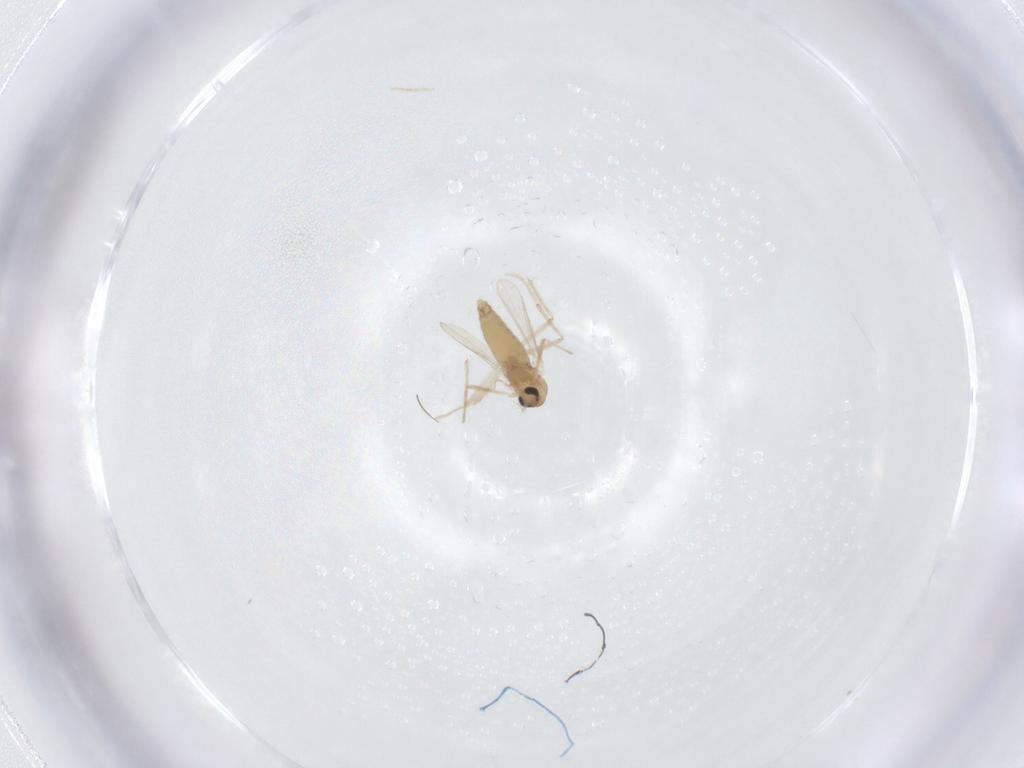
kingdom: Animalia
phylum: Arthropoda
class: Insecta
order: Diptera
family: Chironomidae
